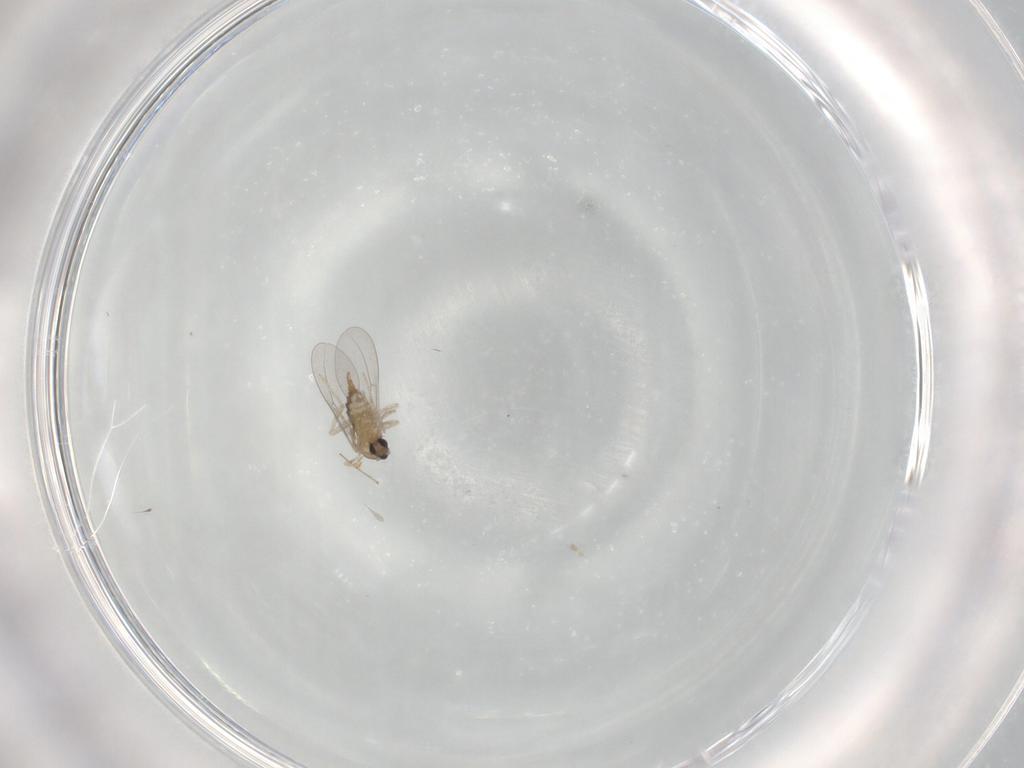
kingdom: Animalia
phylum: Arthropoda
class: Insecta
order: Diptera
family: Cecidomyiidae
